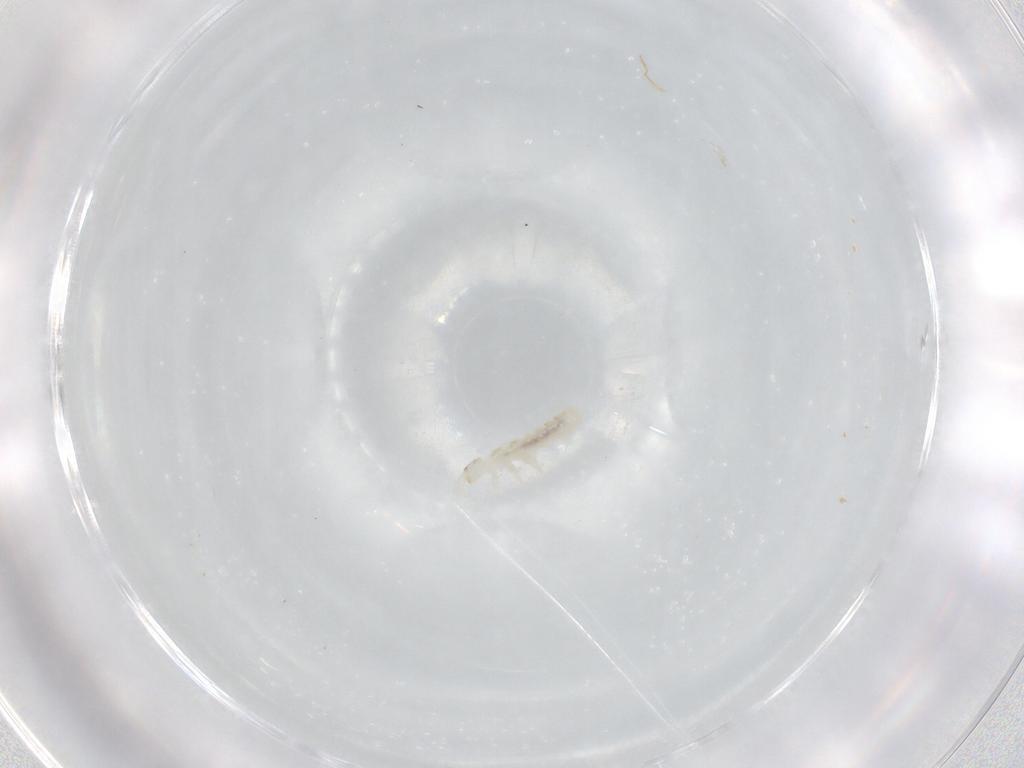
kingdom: Animalia
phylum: Arthropoda
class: Collembola
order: Entomobryomorpha
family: Isotomidae
